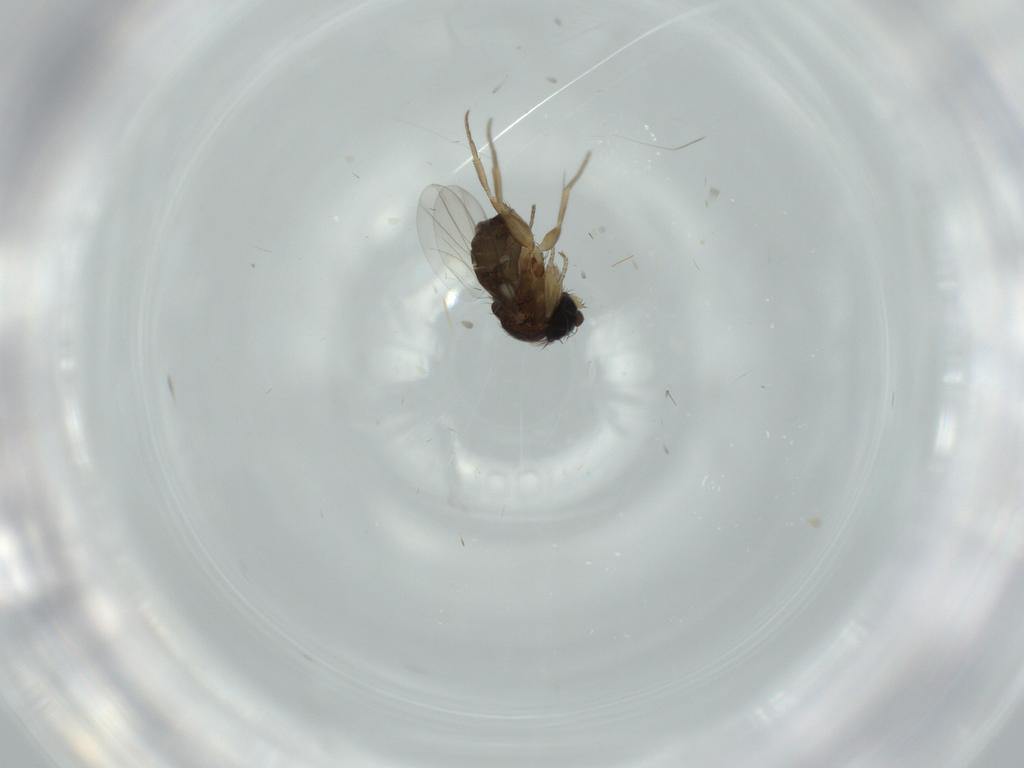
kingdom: Animalia
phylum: Arthropoda
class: Insecta
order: Diptera
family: Phoridae
